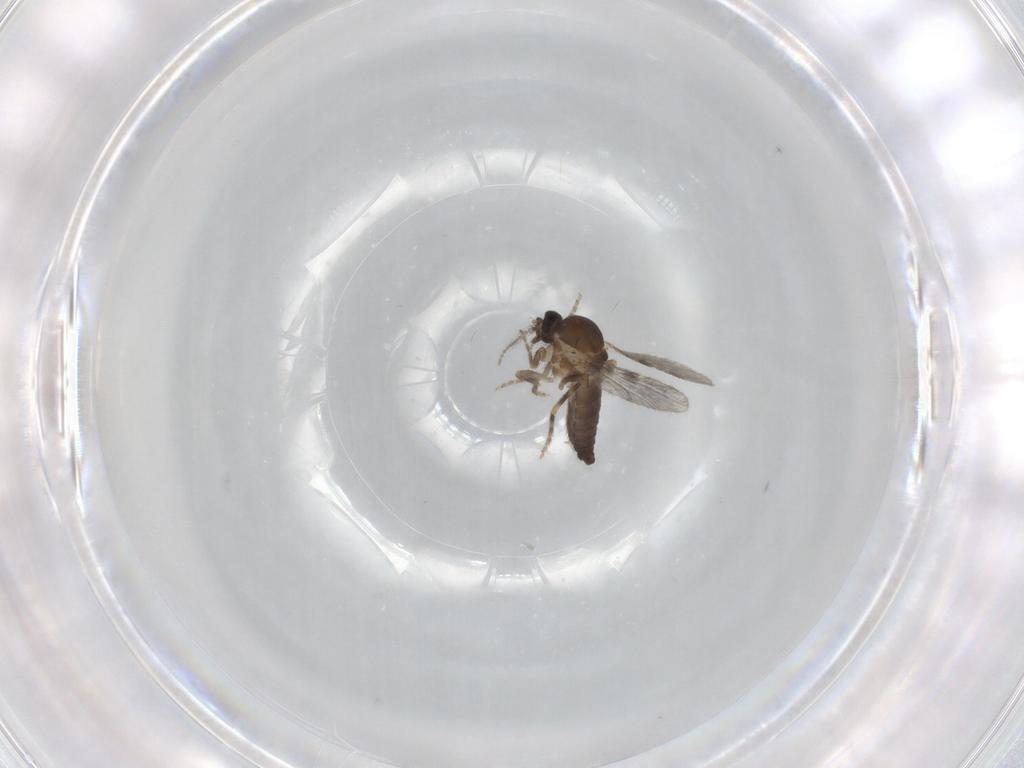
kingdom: Animalia
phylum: Arthropoda
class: Insecta
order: Diptera
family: Ceratopogonidae
